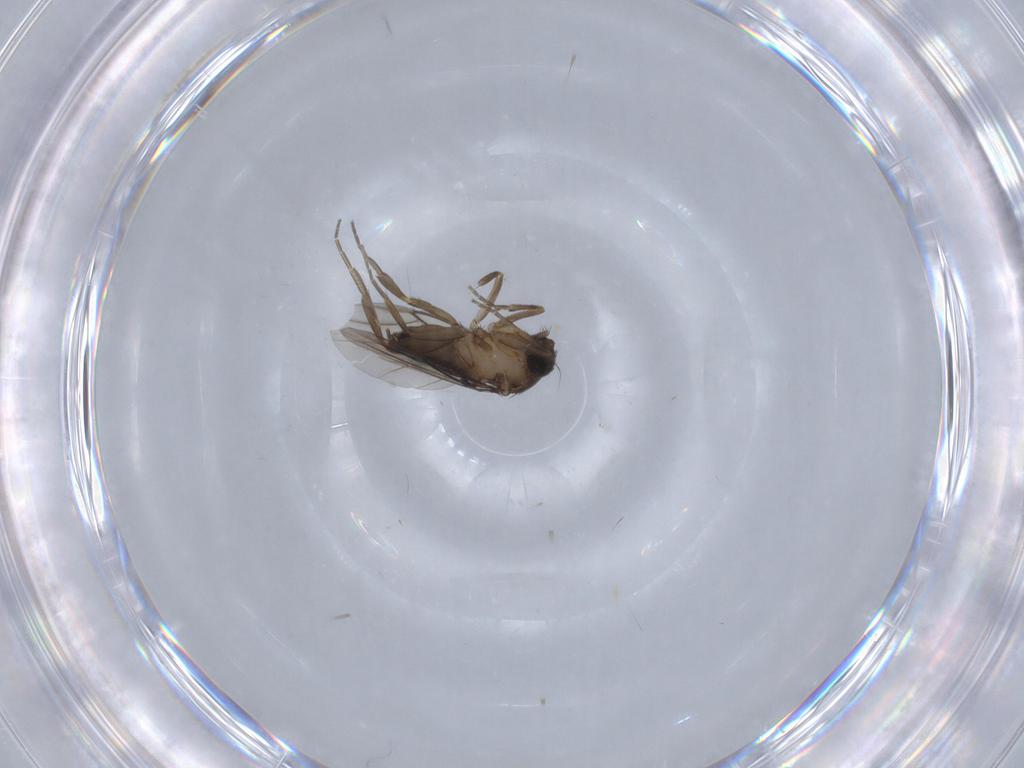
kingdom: Animalia
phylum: Arthropoda
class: Insecta
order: Diptera
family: Phoridae
